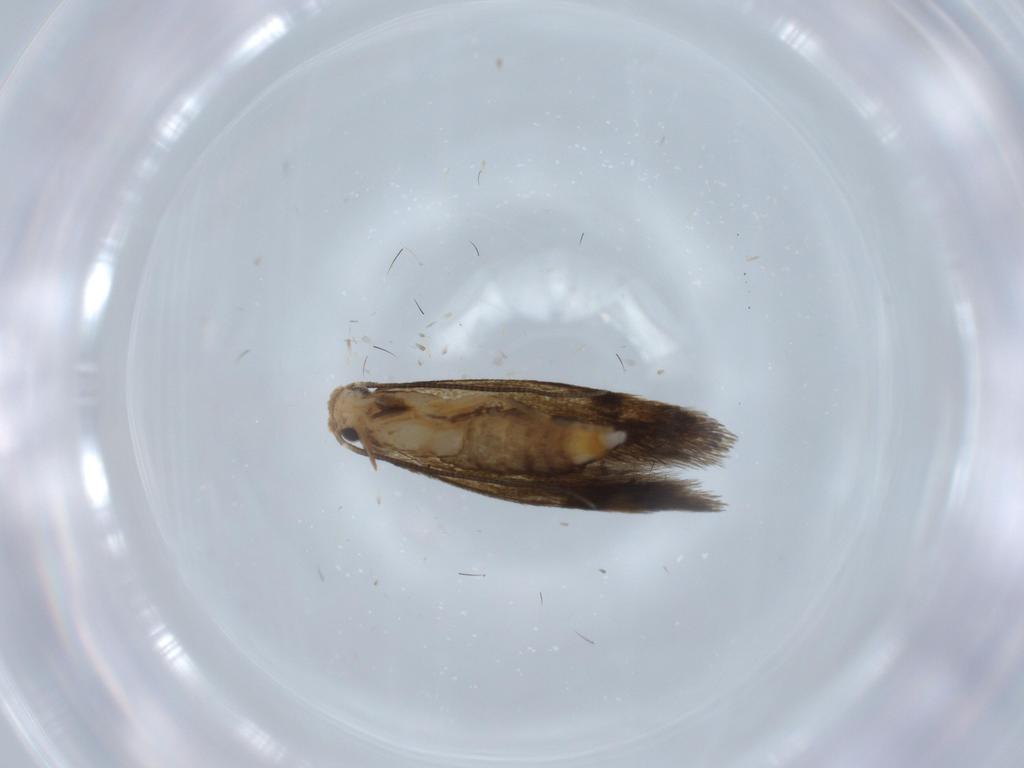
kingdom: Animalia
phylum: Arthropoda
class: Insecta
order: Lepidoptera
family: Tineidae
